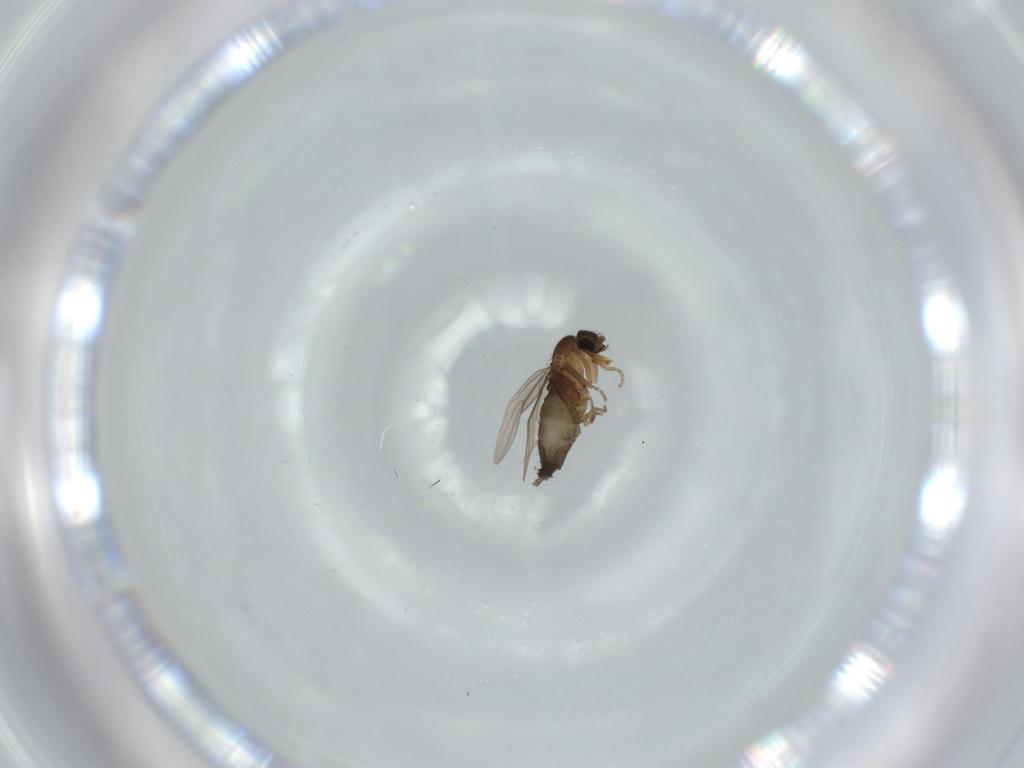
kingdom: Animalia
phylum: Arthropoda
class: Insecta
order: Diptera
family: Phoridae
